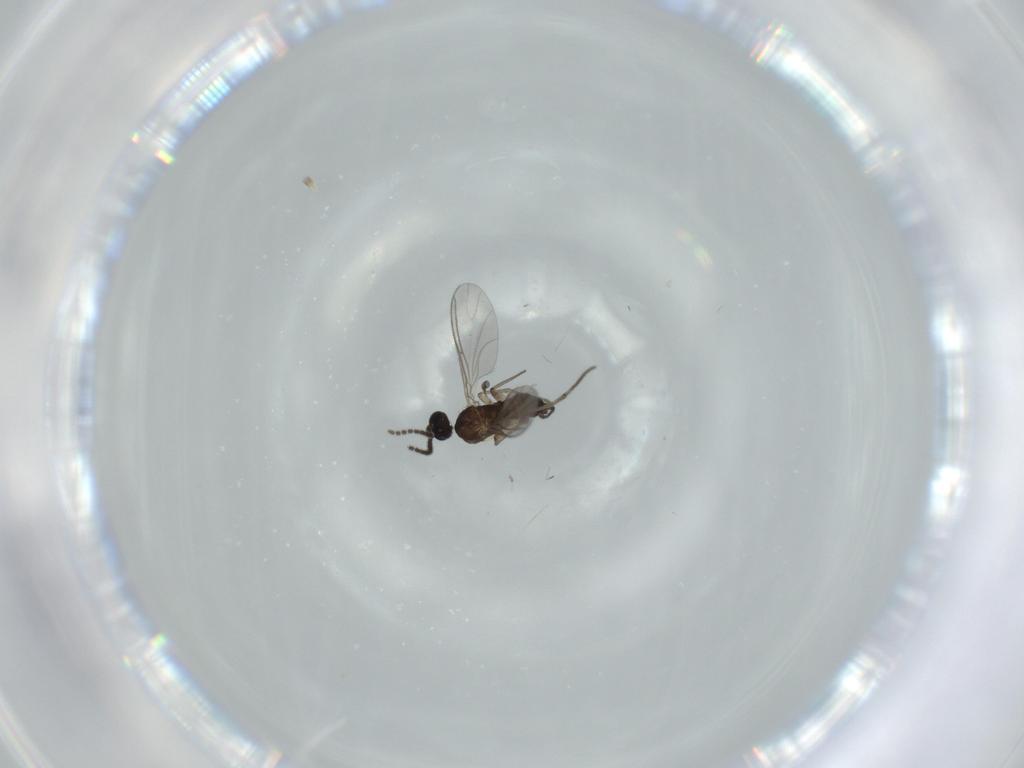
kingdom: Animalia
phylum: Arthropoda
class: Insecta
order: Diptera
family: Sciaridae
